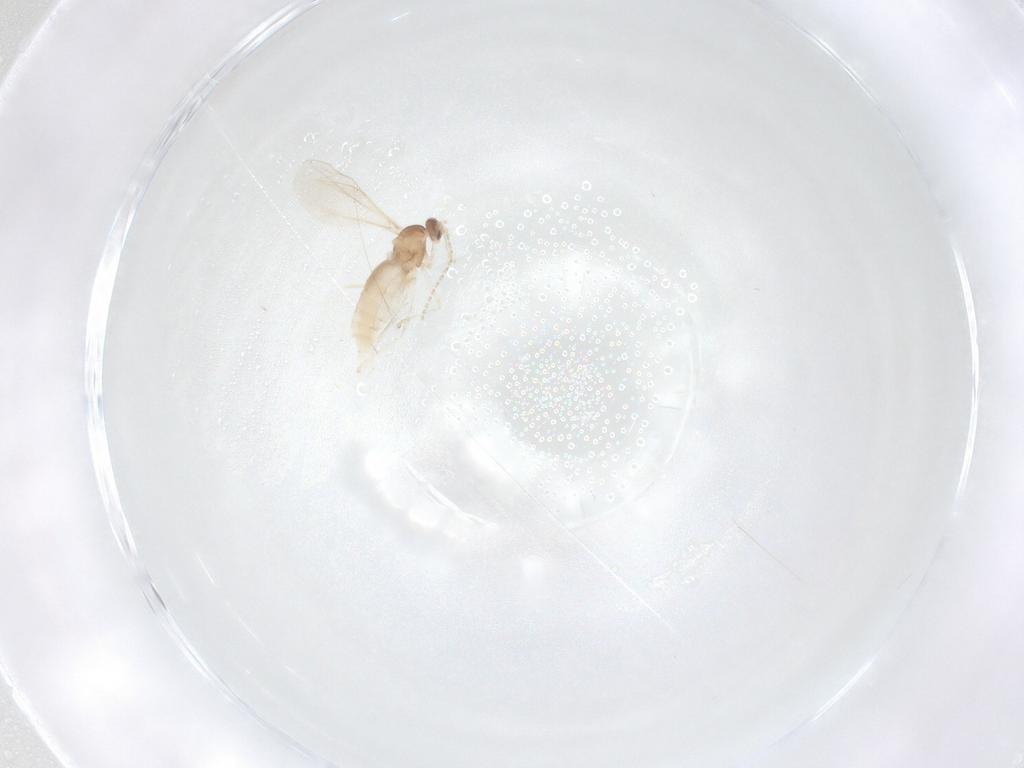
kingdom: Animalia
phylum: Arthropoda
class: Insecta
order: Diptera
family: Cecidomyiidae
